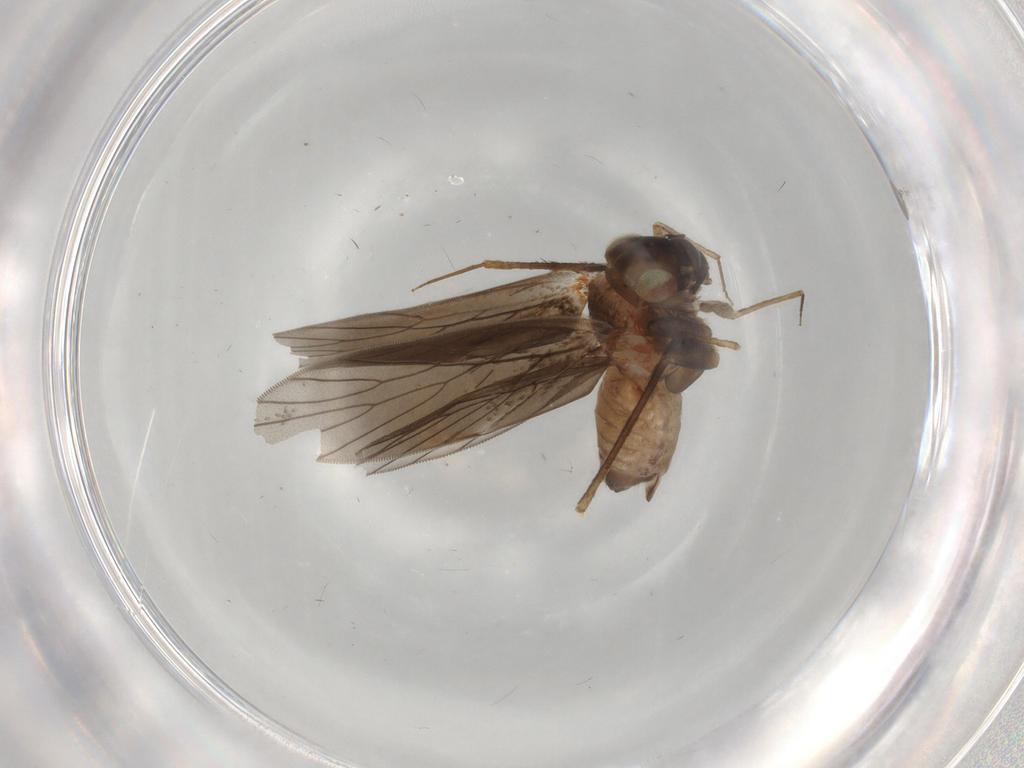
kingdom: Animalia
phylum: Arthropoda
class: Insecta
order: Psocodea
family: Lepidopsocidae
